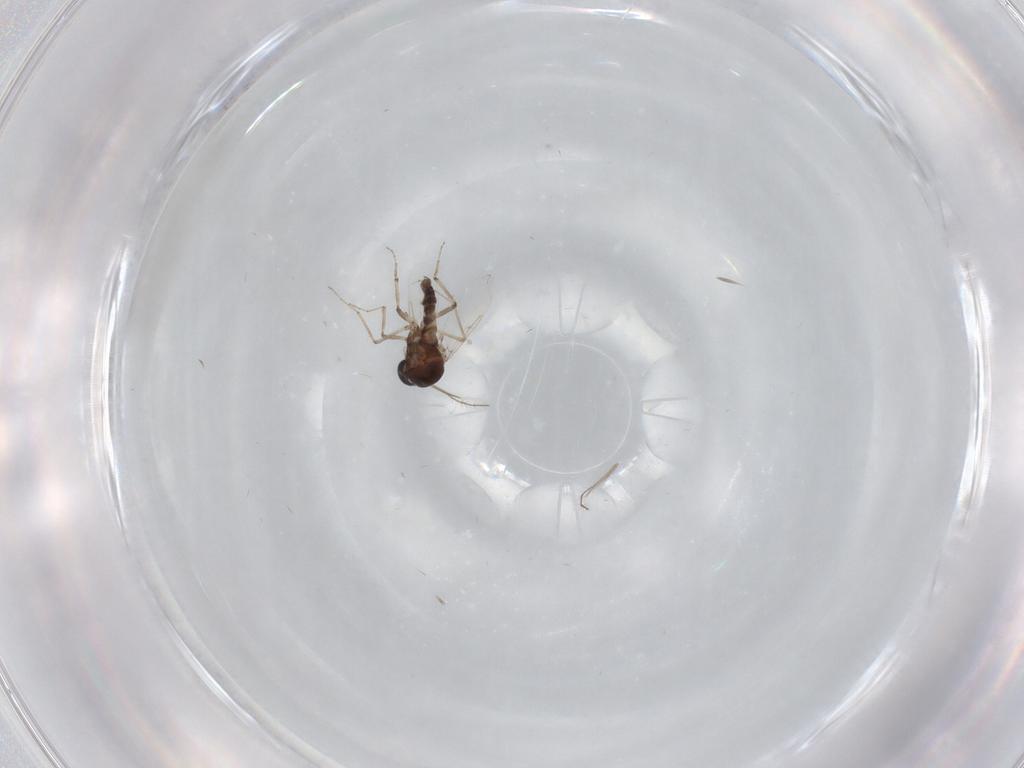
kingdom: Animalia
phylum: Arthropoda
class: Insecta
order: Diptera
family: Ceratopogonidae
